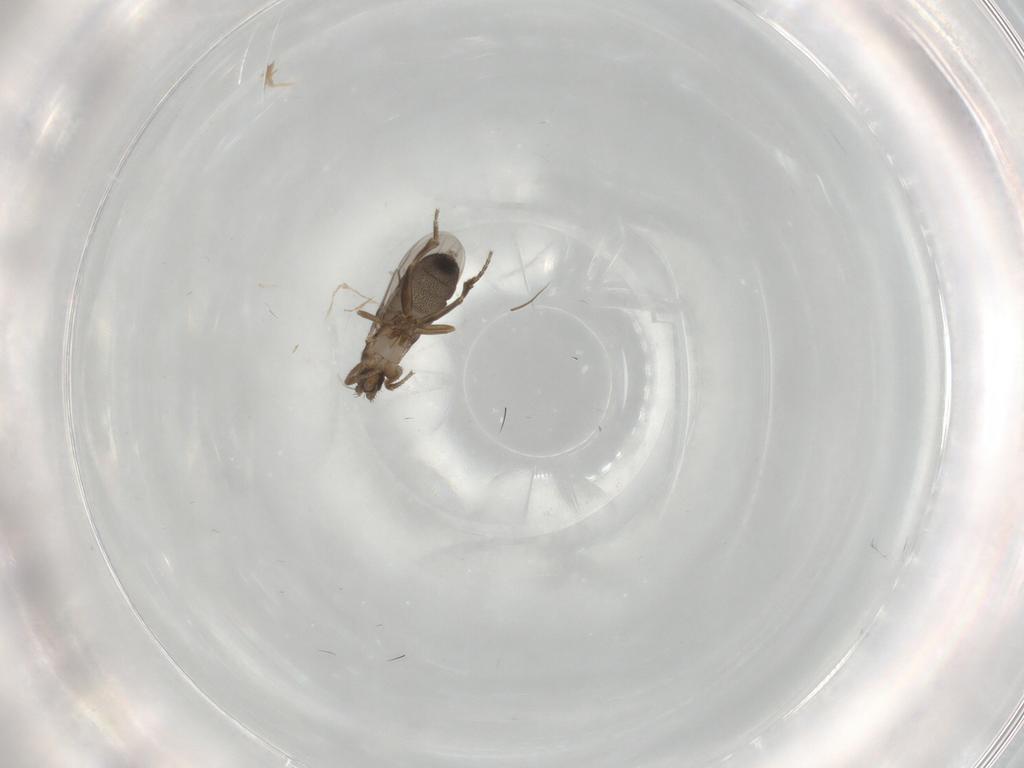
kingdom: Animalia
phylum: Arthropoda
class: Insecta
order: Diptera
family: Phoridae
